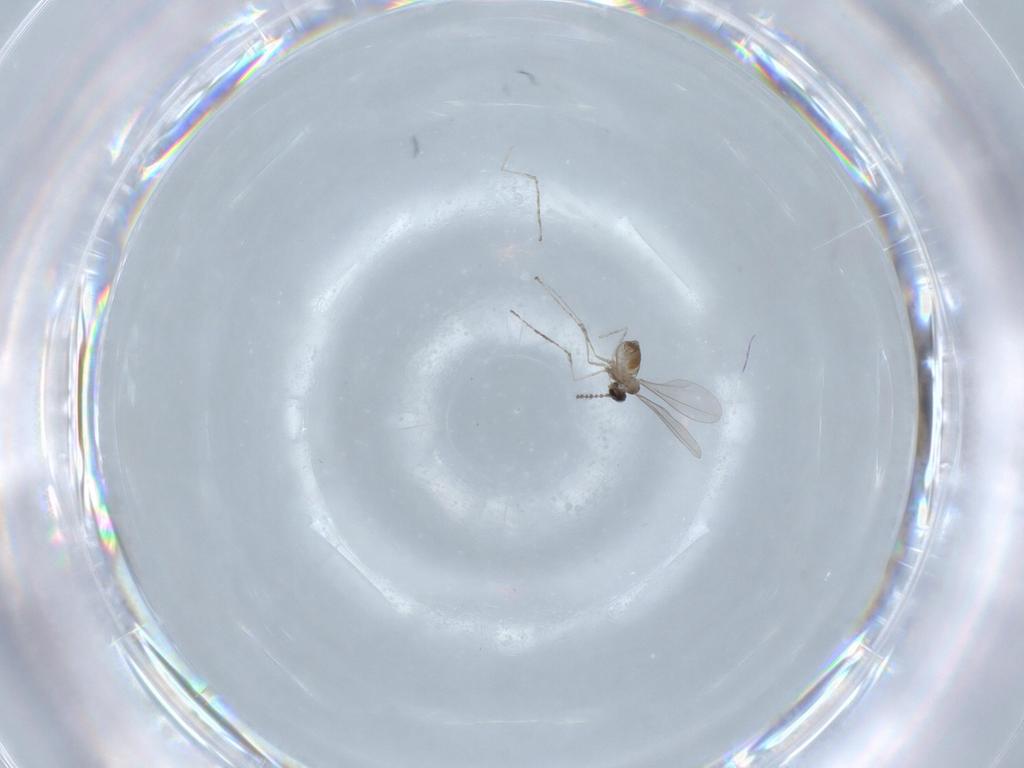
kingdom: Animalia
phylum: Arthropoda
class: Insecta
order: Diptera
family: Cecidomyiidae
